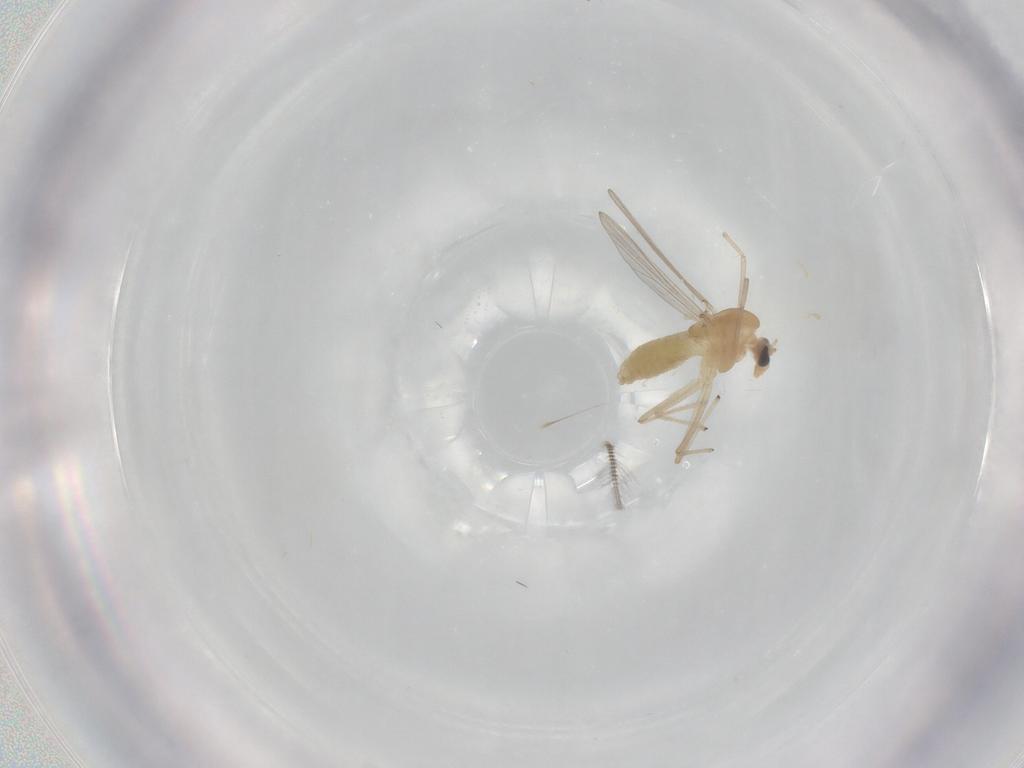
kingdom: Animalia
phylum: Arthropoda
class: Insecta
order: Diptera
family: Chironomidae
